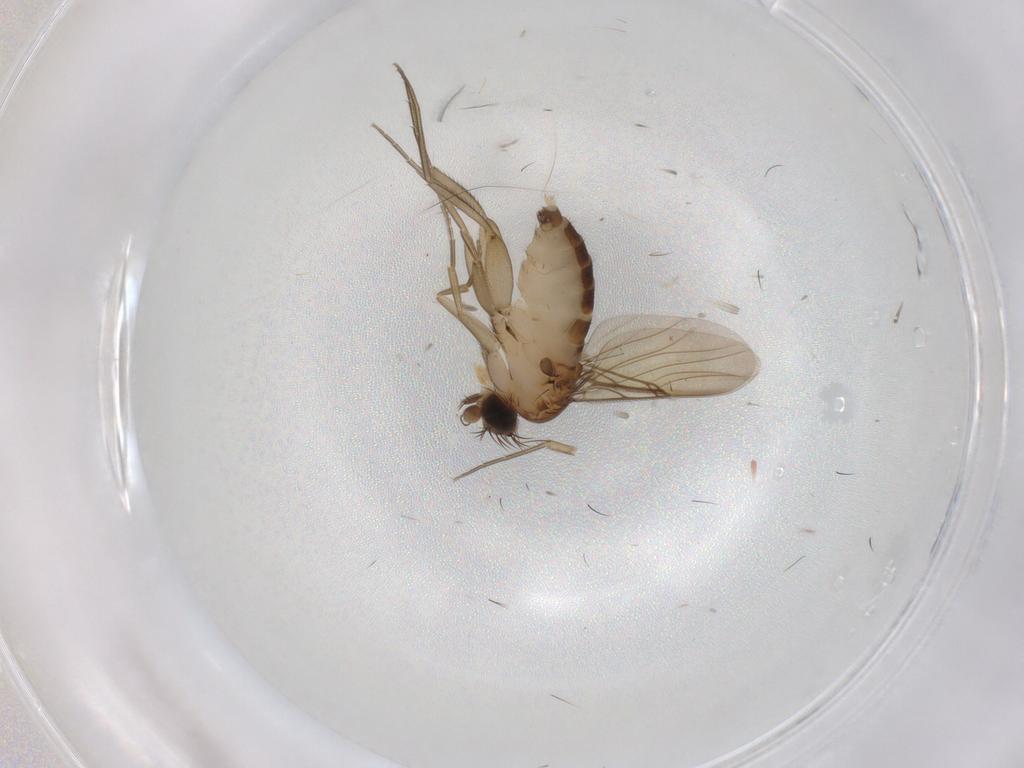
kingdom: Animalia
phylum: Arthropoda
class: Insecta
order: Diptera
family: Phoridae
